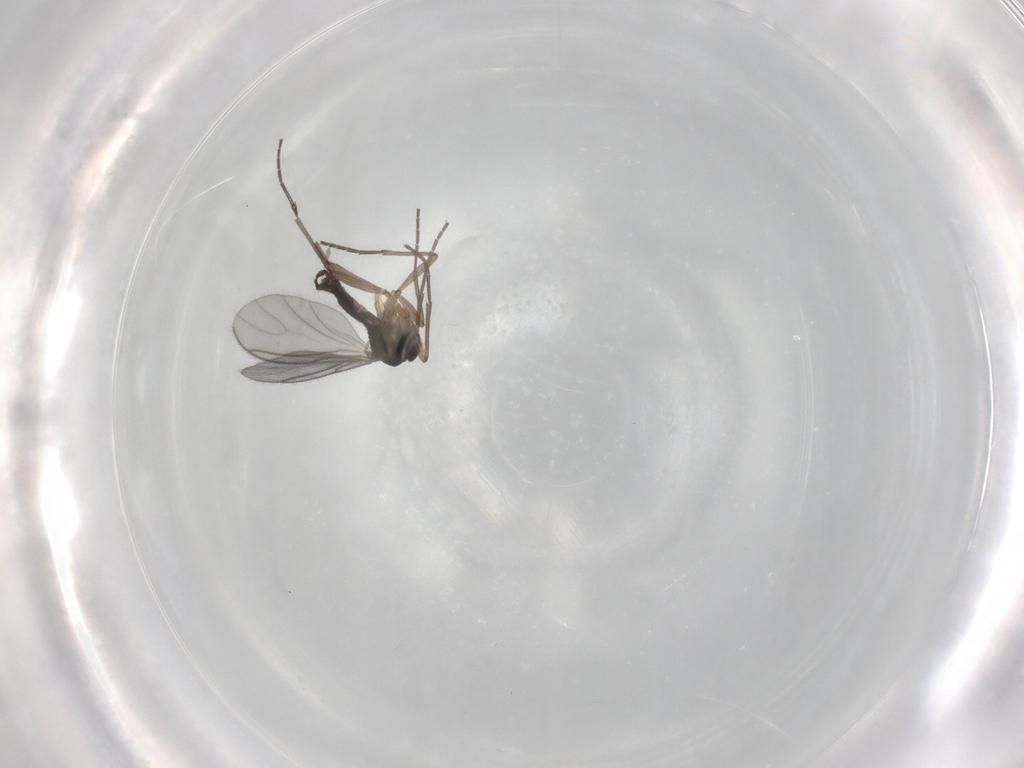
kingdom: Animalia
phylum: Arthropoda
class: Insecta
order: Diptera
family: Sciaridae
